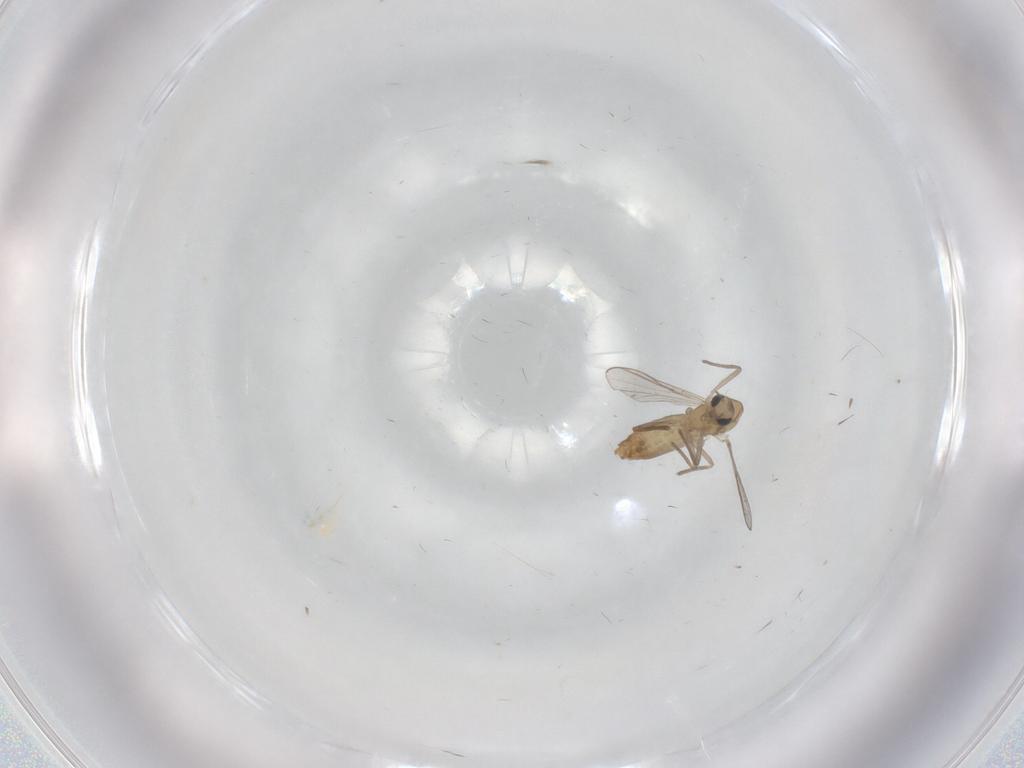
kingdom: Animalia
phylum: Arthropoda
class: Insecta
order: Diptera
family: Chironomidae
